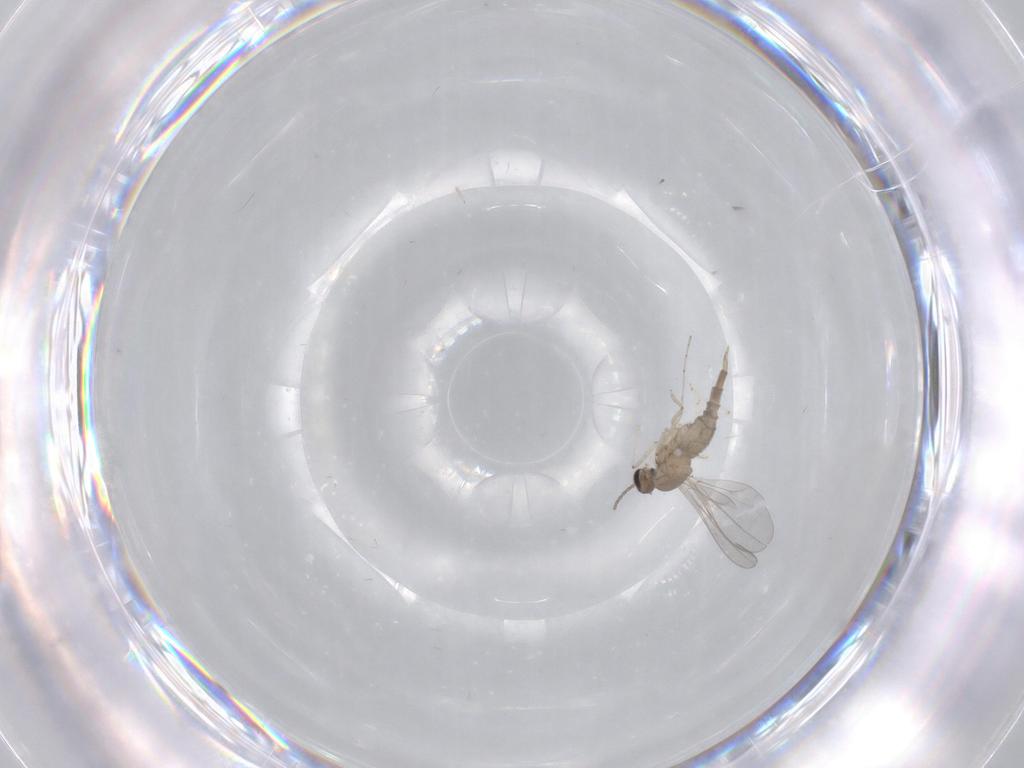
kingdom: Animalia
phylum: Arthropoda
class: Insecta
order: Diptera
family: Cecidomyiidae
